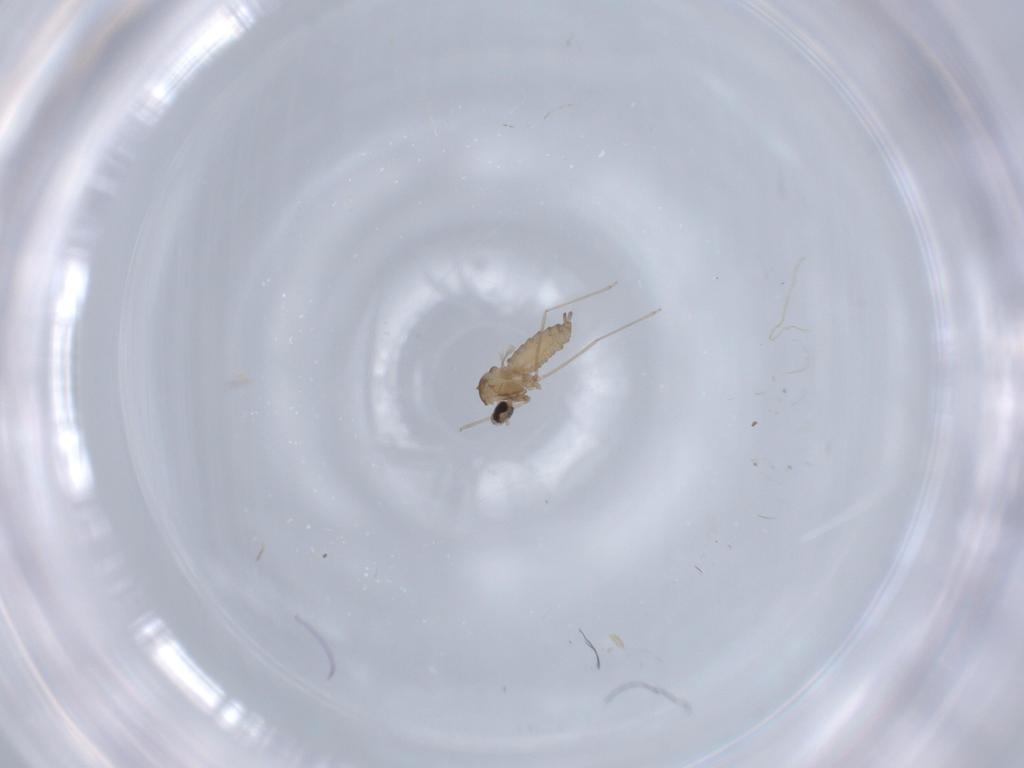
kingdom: Animalia
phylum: Arthropoda
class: Insecta
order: Diptera
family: Chironomidae
